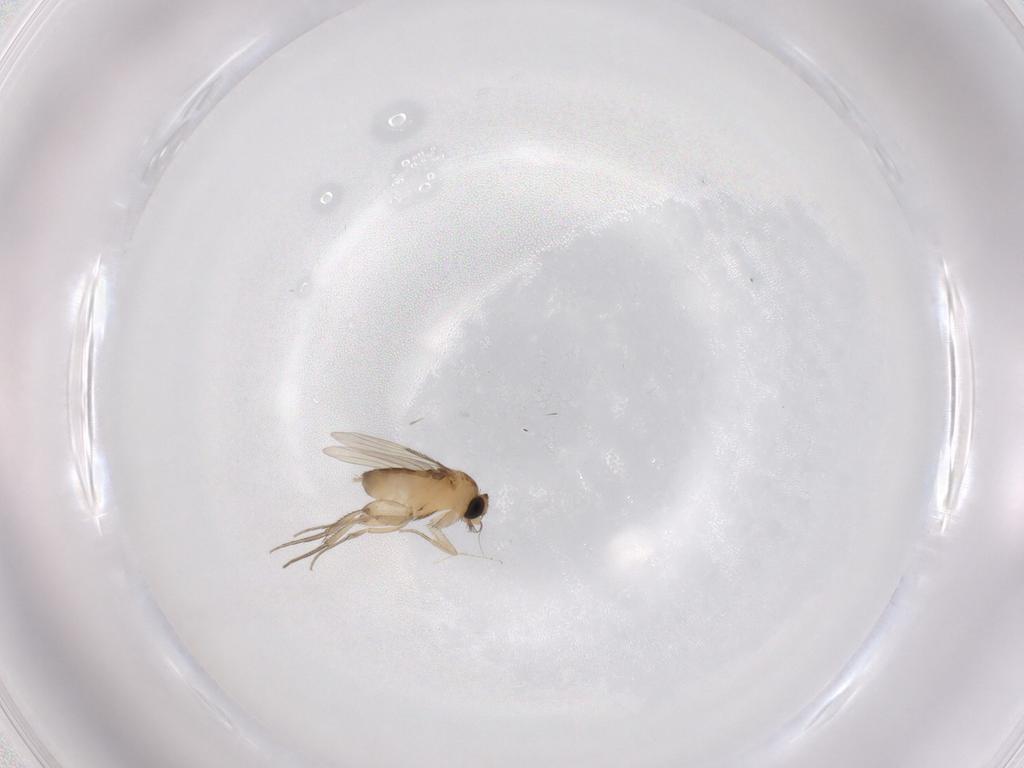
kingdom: Animalia
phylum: Arthropoda
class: Insecta
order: Diptera
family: Phoridae
